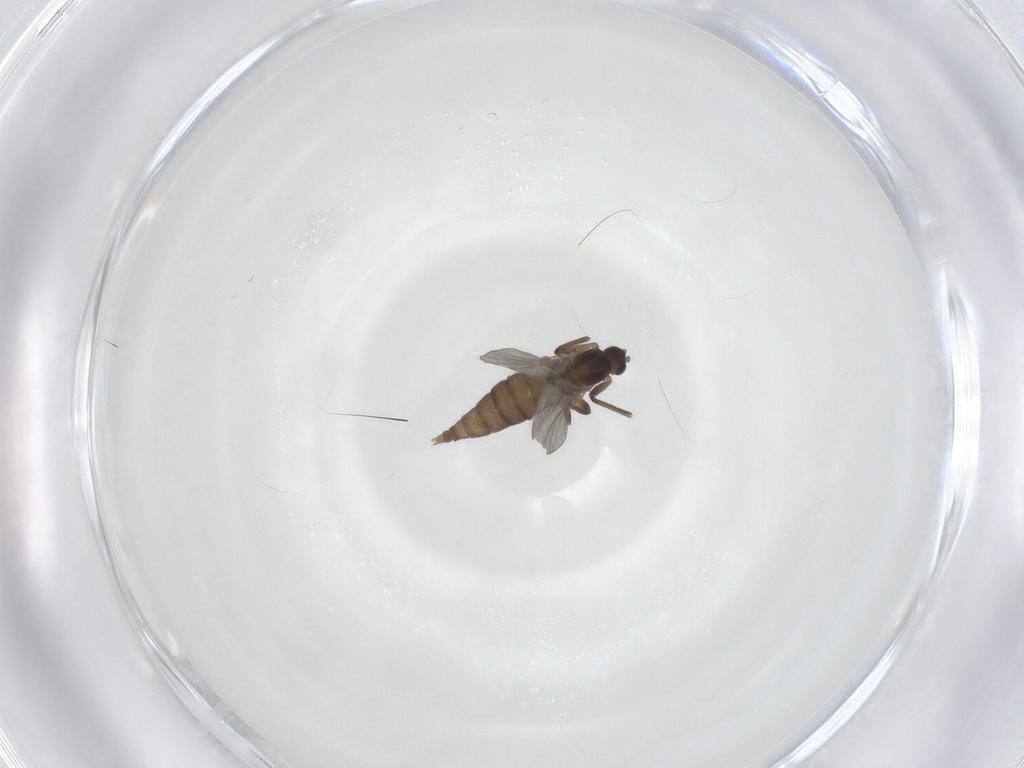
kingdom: Animalia
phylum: Arthropoda
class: Insecta
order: Diptera
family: Cecidomyiidae
